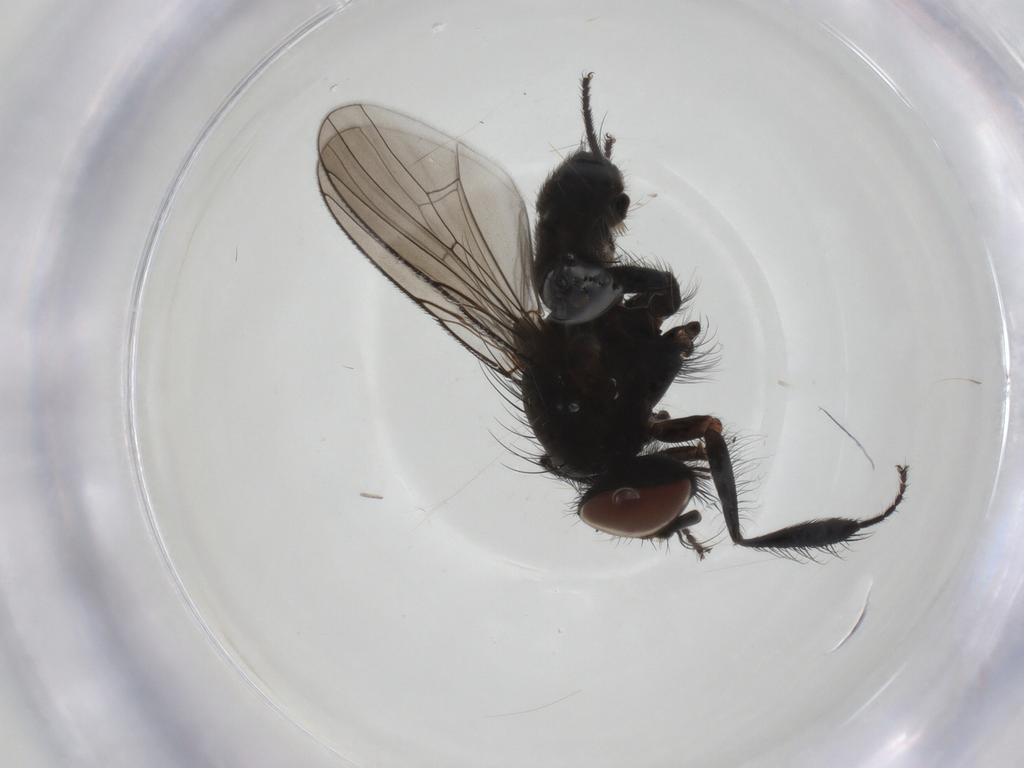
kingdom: Animalia
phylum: Arthropoda
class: Insecta
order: Diptera
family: Muscidae
